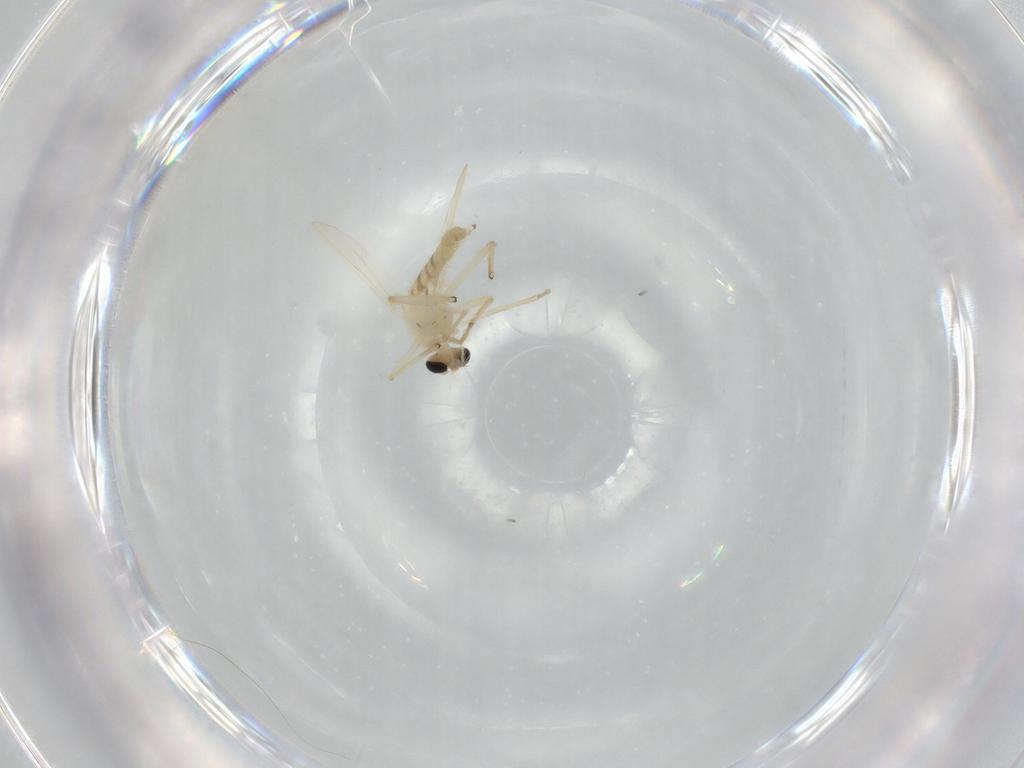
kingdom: Animalia
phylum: Arthropoda
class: Insecta
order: Diptera
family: Chironomidae
